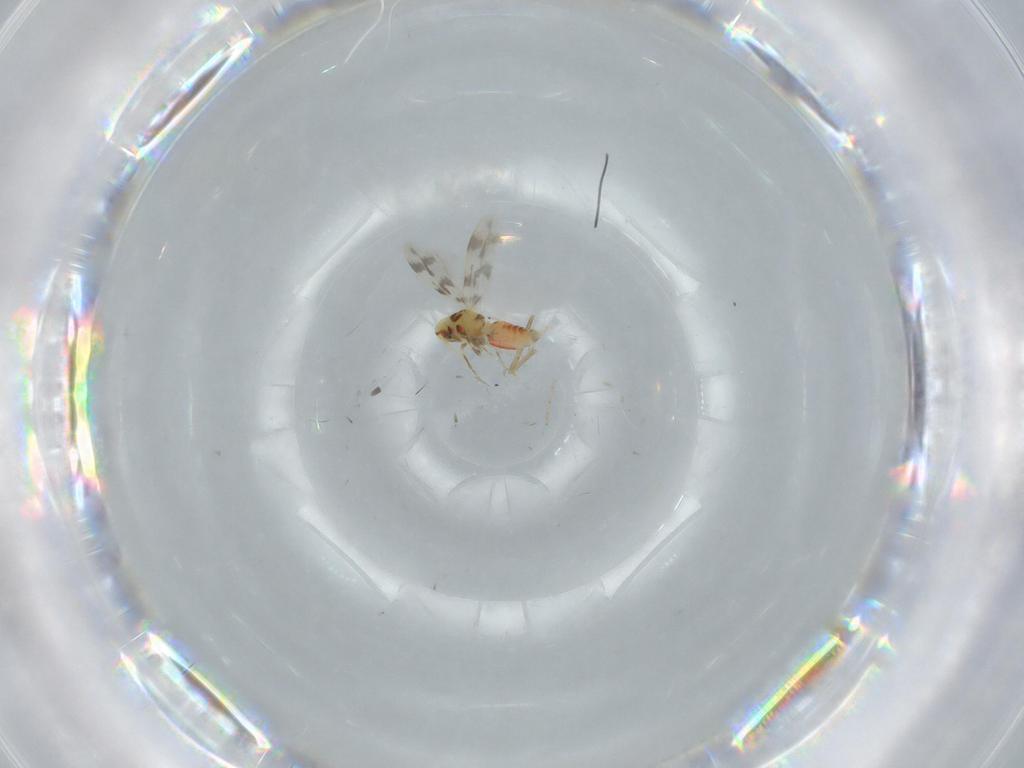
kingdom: Animalia
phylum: Arthropoda
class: Insecta
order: Hemiptera
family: Aleyrodidae
